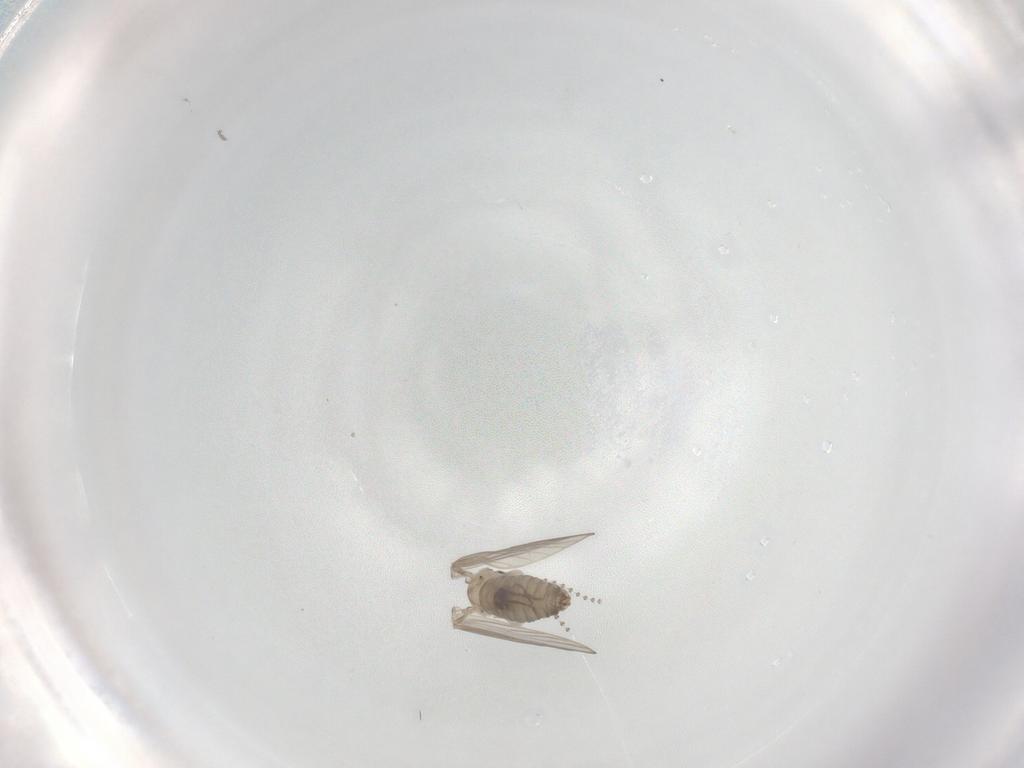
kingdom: Animalia
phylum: Arthropoda
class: Insecta
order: Diptera
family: Psychodidae
